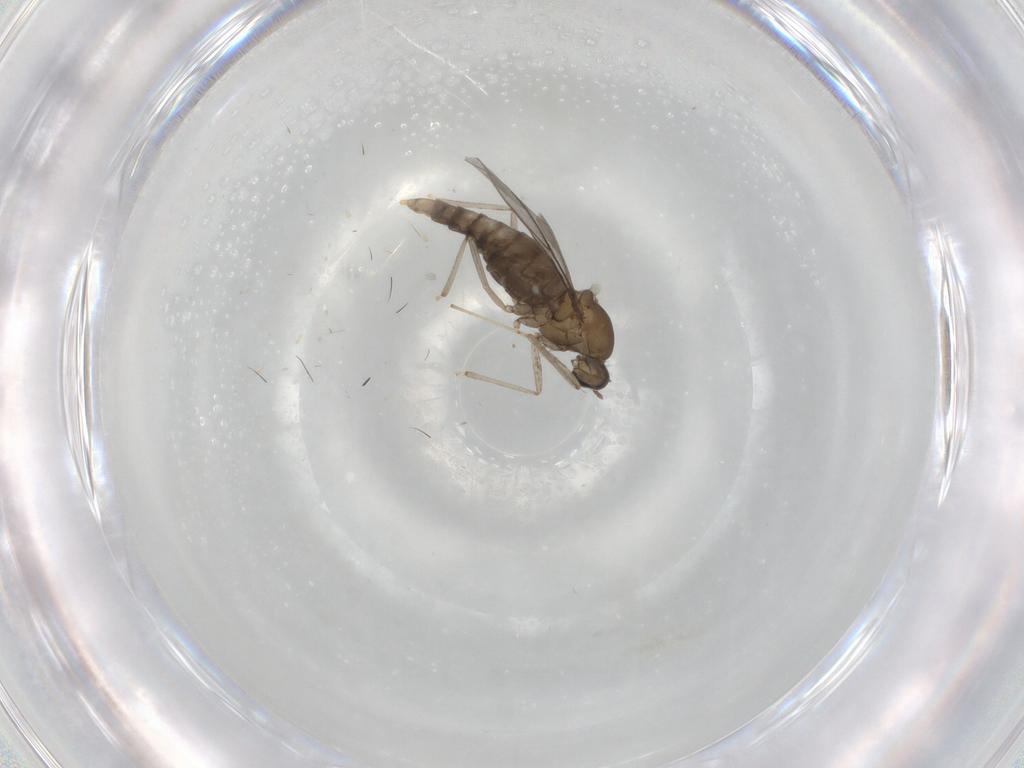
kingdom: Animalia
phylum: Arthropoda
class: Insecta
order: Diptera
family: Cecidomyiidae
